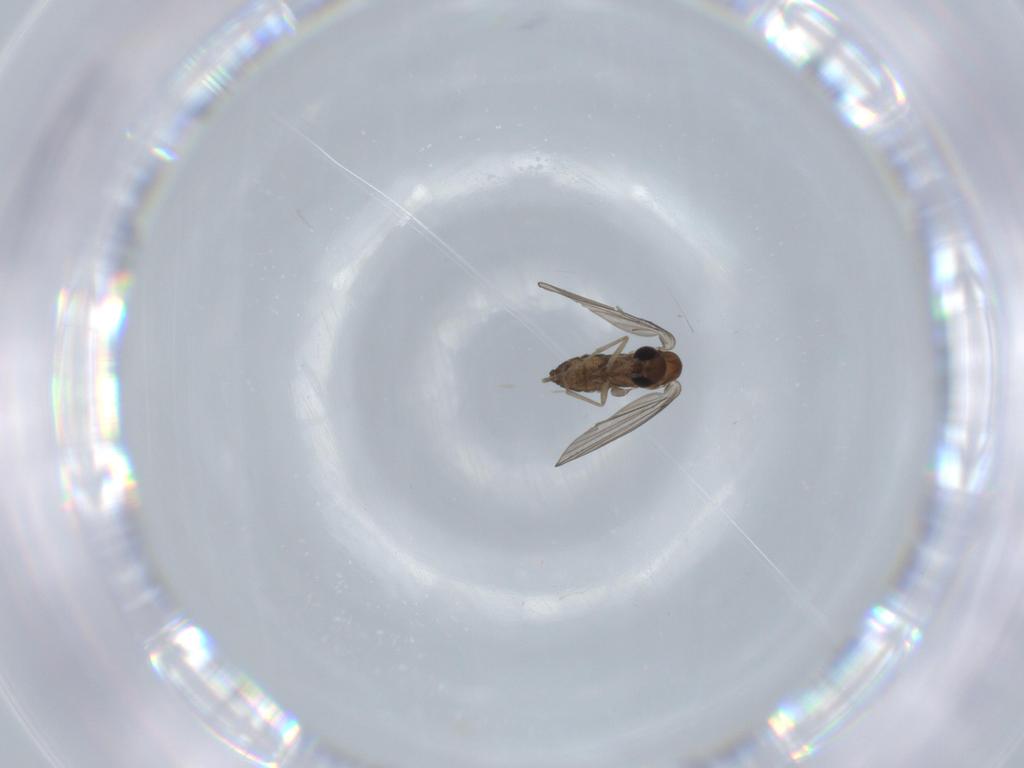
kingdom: Animalia
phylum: Arthropoda
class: Insecta
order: Diptera
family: Psychodidae
